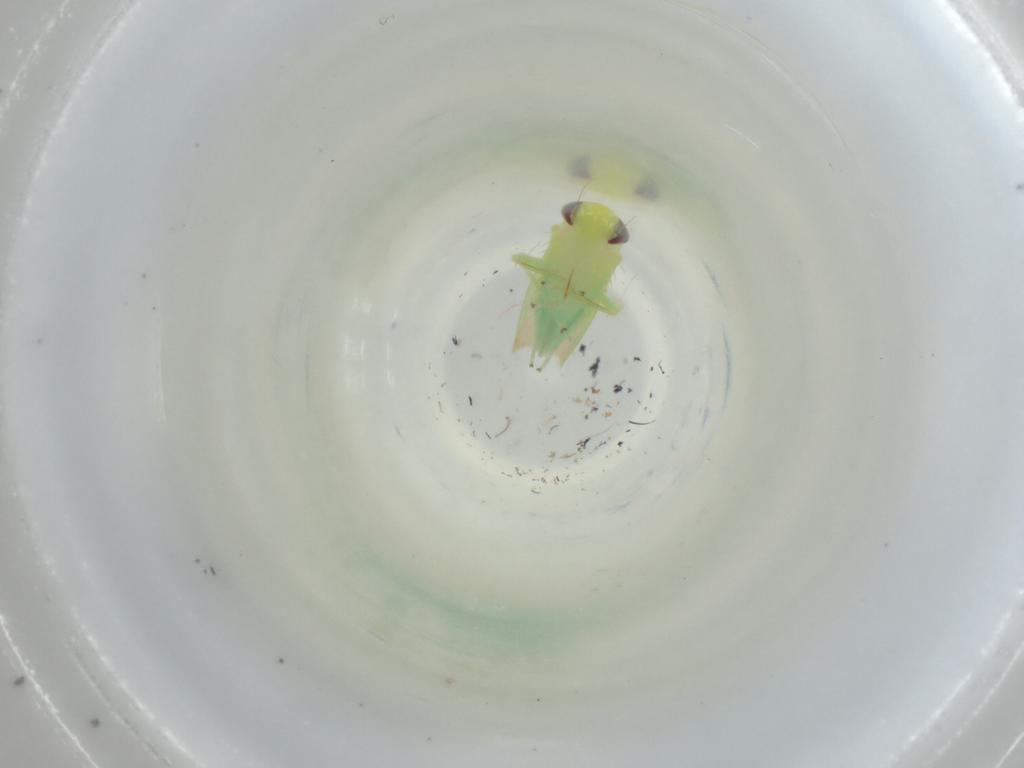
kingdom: Animalia
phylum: Arthropoda
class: Insecta
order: Hemiptera
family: Cicadellidae
